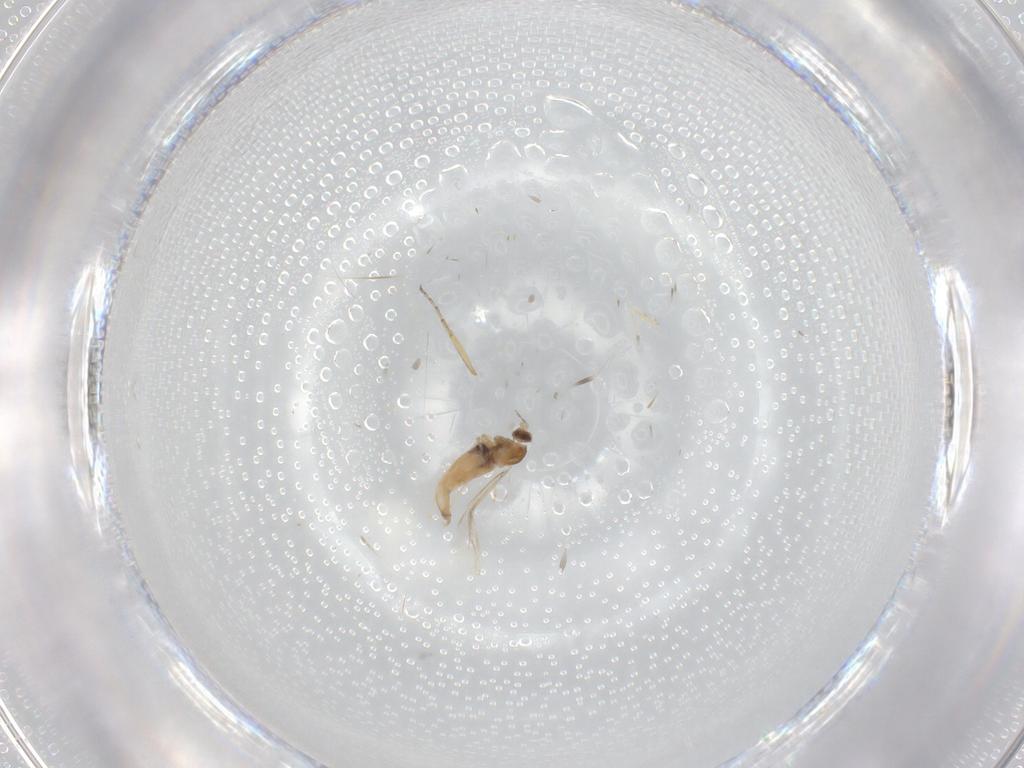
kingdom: Animalia
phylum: Arthropoda
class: Insecta
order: Diptera
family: Cecidomyiidae
